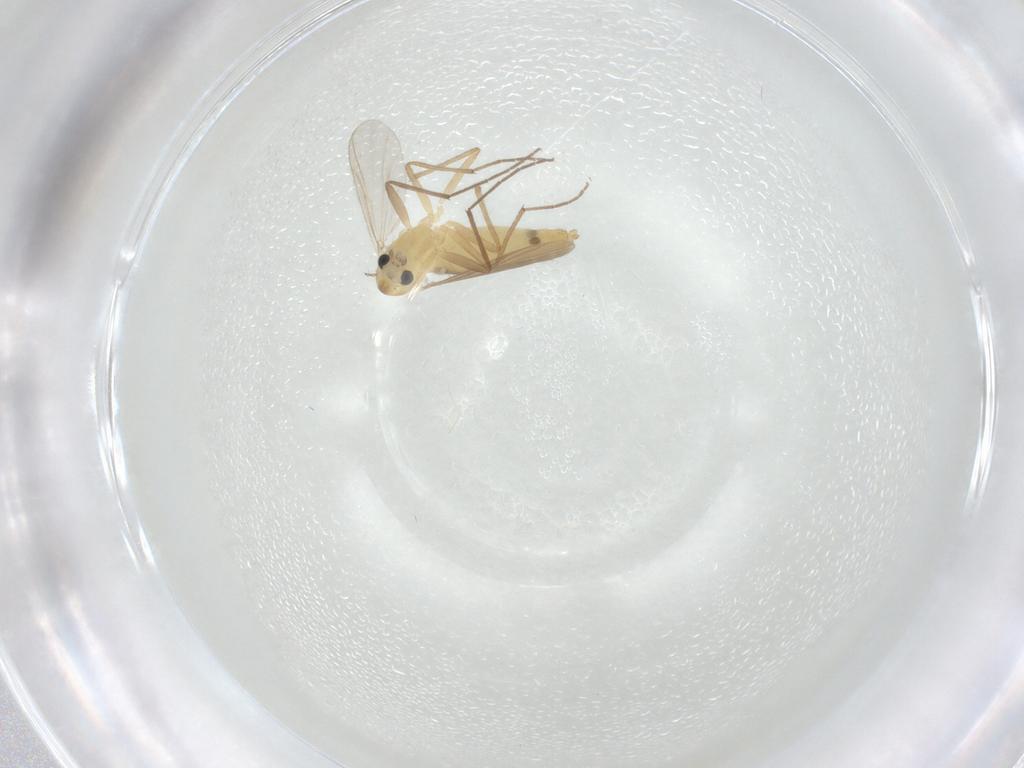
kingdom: Animalia
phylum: Arthropoda
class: Insecta
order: Diptera
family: Chironomidae
